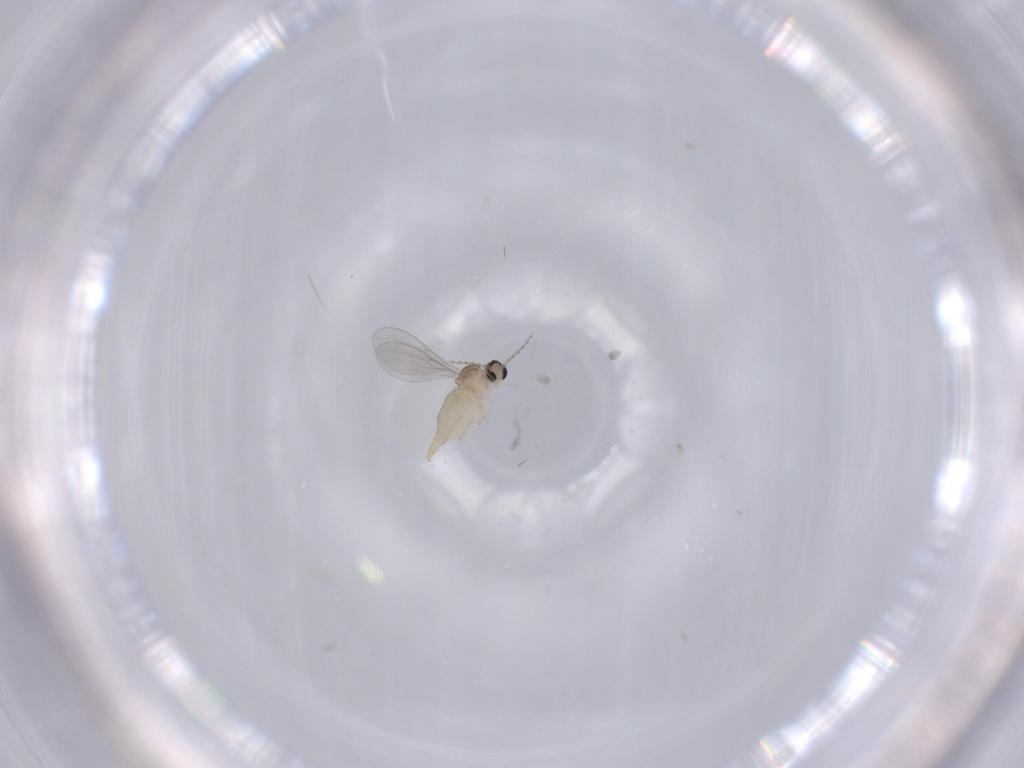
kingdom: Animalia
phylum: Arthropoda
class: Insecta
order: Diptera
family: Cecidomyiidae
